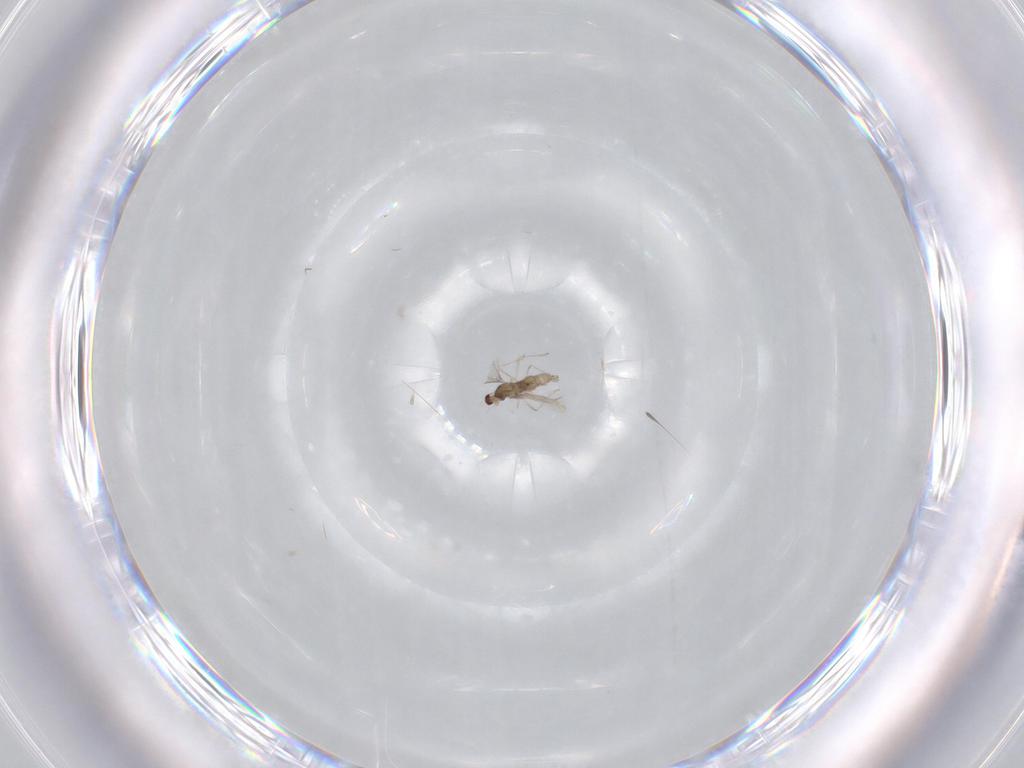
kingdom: Animalia
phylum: Arthropoda
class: Insecta
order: Diptera
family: Cecidomyiidae
